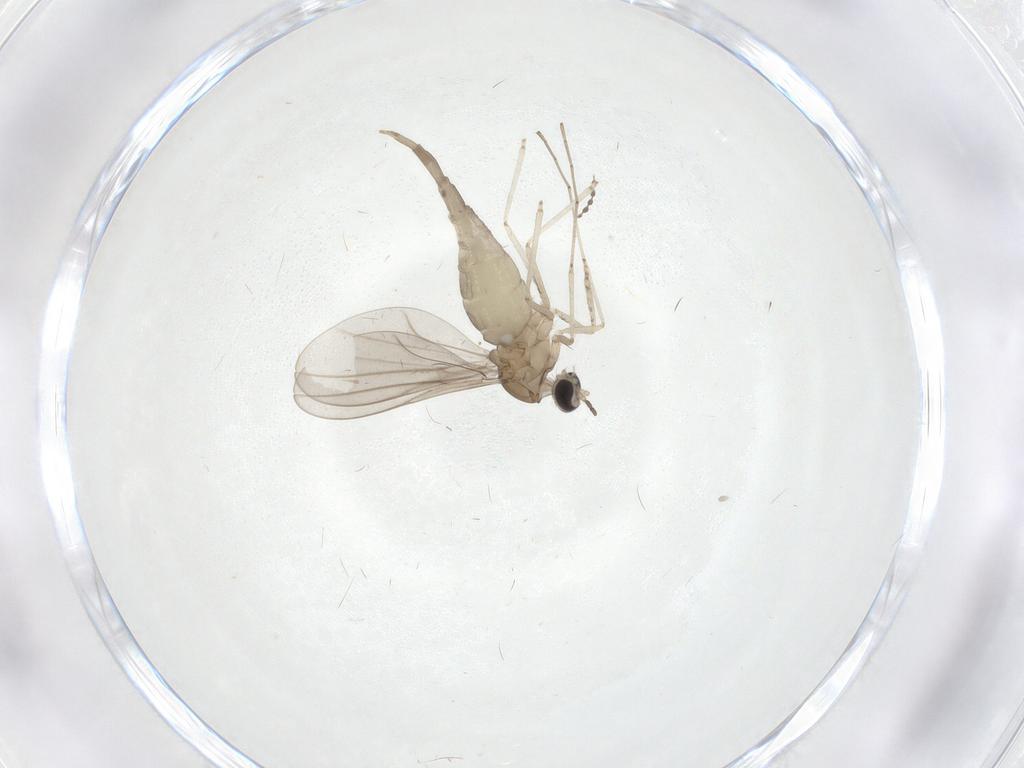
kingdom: Animalia
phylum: Arthropoda
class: Insecta
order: Diptera
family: Cecidomyiidae
